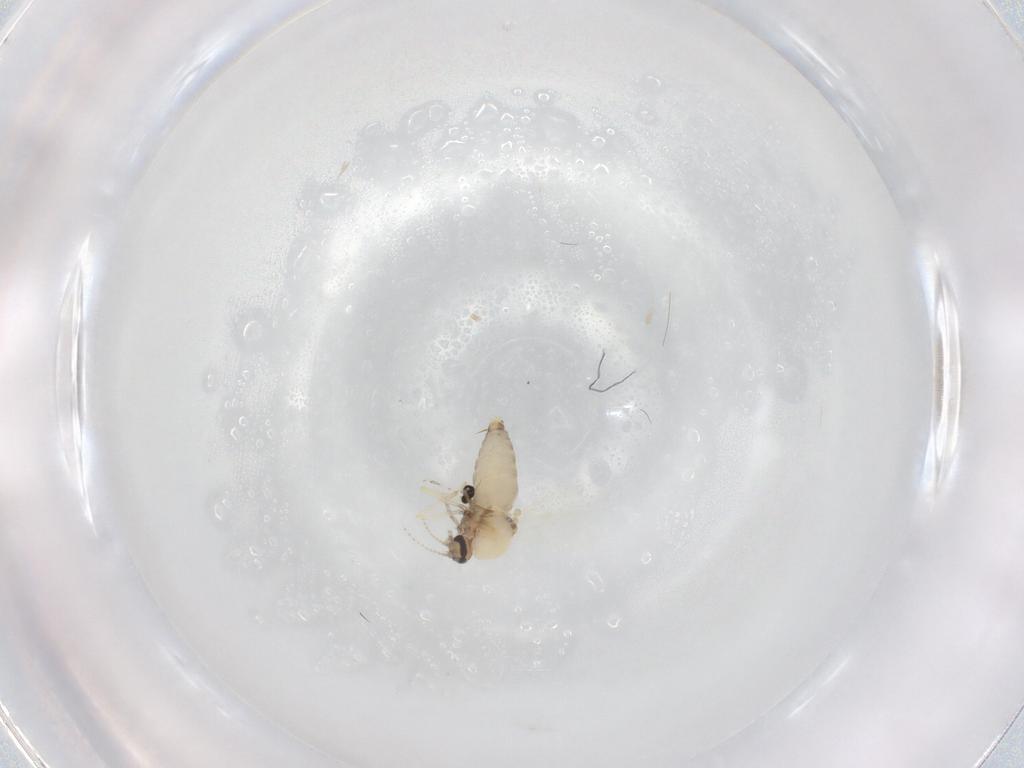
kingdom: Animalia
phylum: Arthropoda
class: Insecta
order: Diptera
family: Ceratopogonidae
